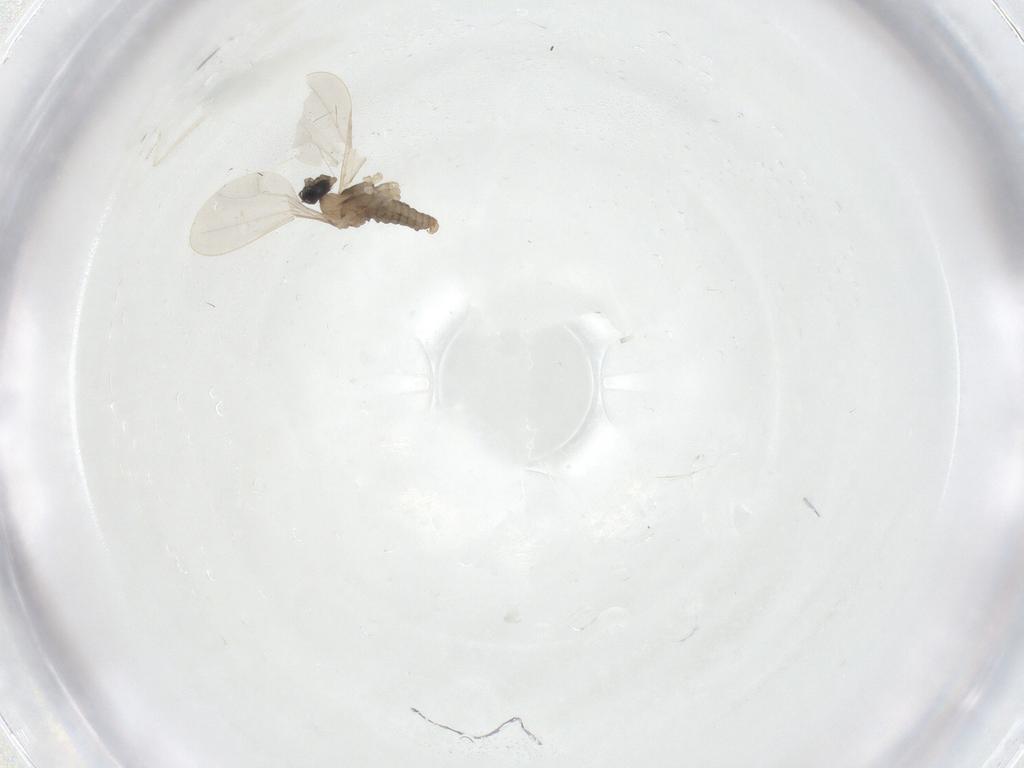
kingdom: Animalia
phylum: Arthropoda
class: Insecta
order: Diptera
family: Cecidomyiidae
